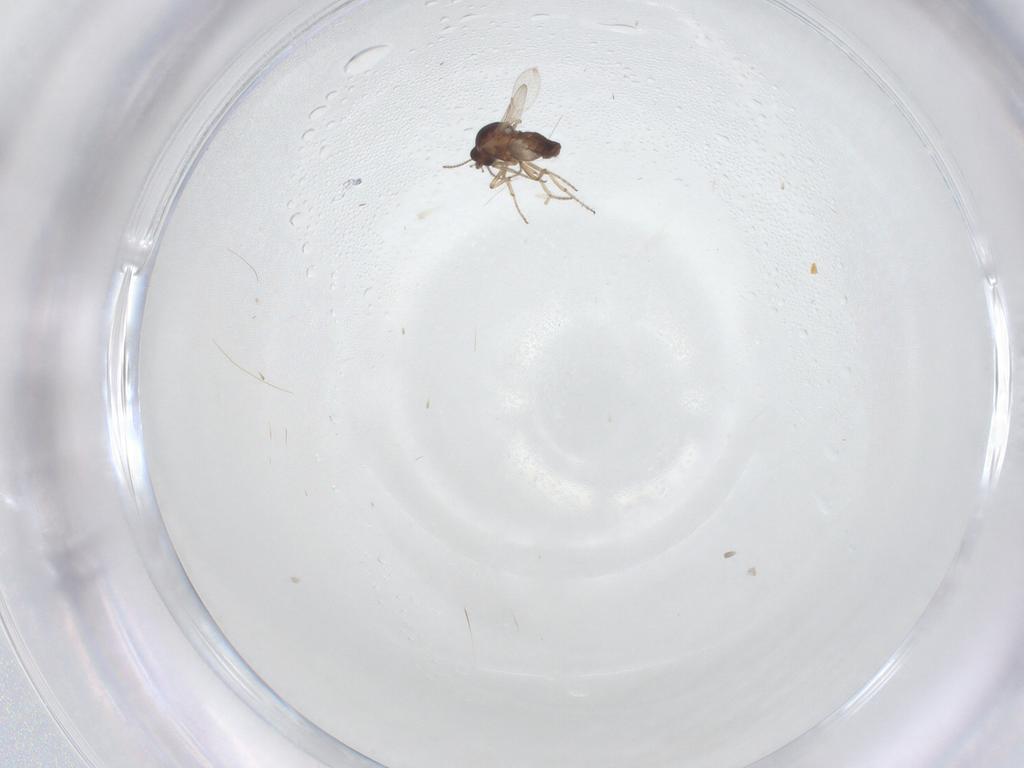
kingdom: Animalia
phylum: Arthropoda
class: Insecta
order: Diptera
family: Ceratopogonidae
